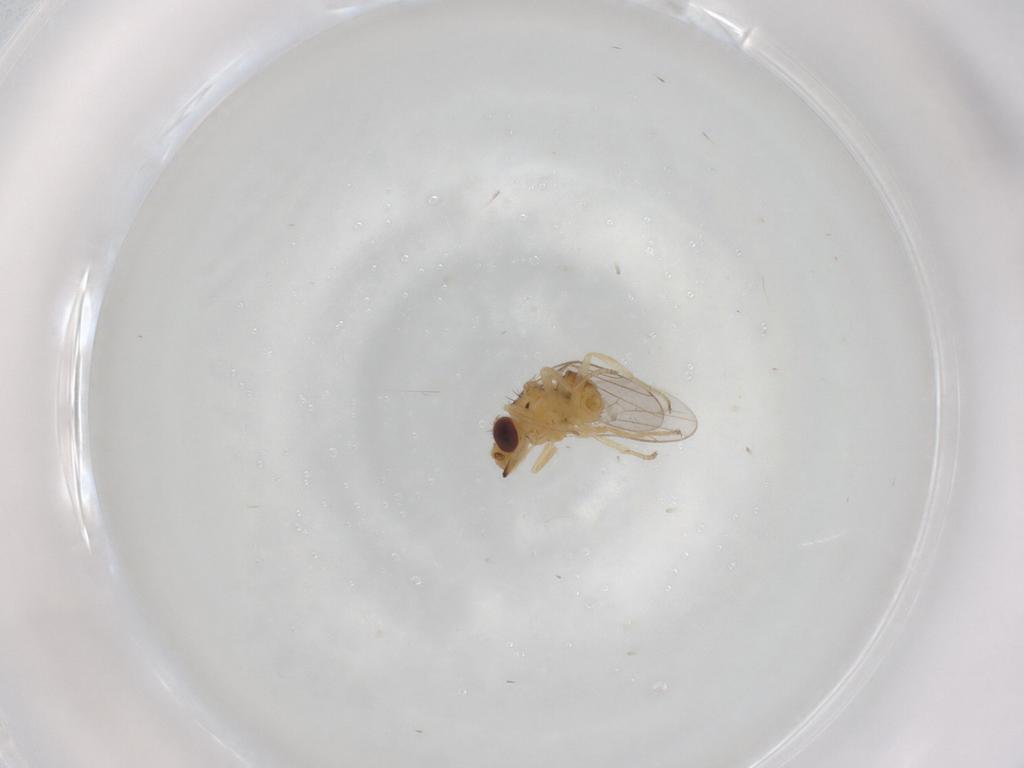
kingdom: Animalia
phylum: Arthropoda
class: Insecta
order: Diptera
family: Chloropidae
